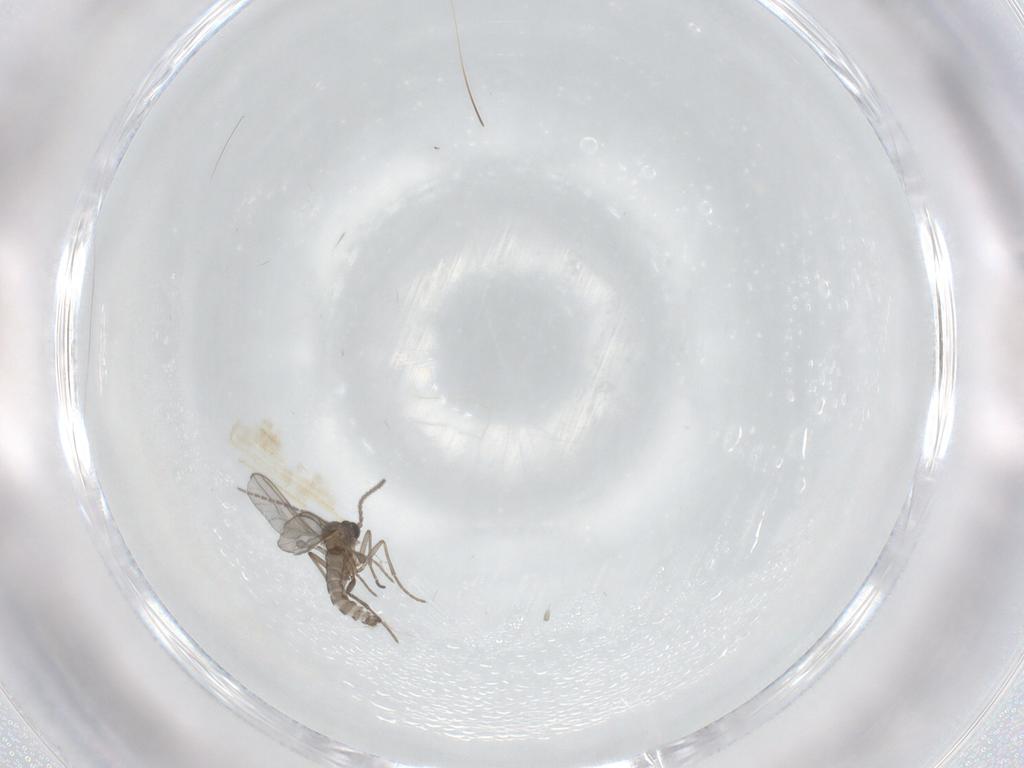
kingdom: Animalia
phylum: Arthropoda
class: Insecta
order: Diptera
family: Sciaridae
